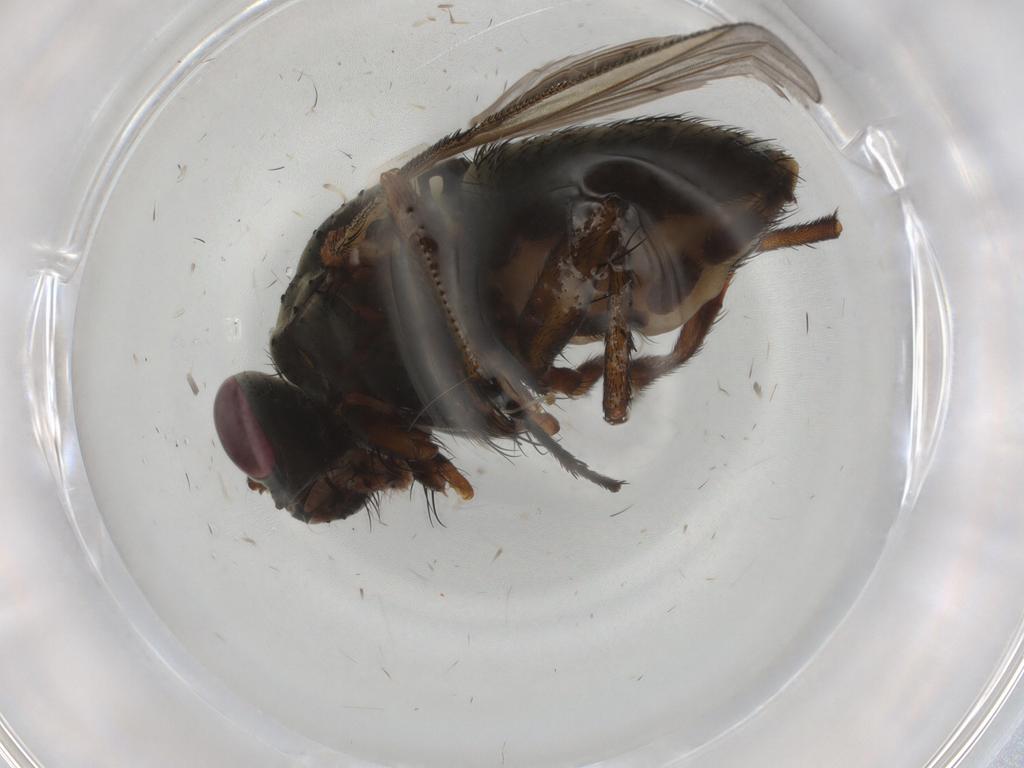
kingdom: Animalia
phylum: Arthropoda
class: Insecta
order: Diptera
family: Muscidae
